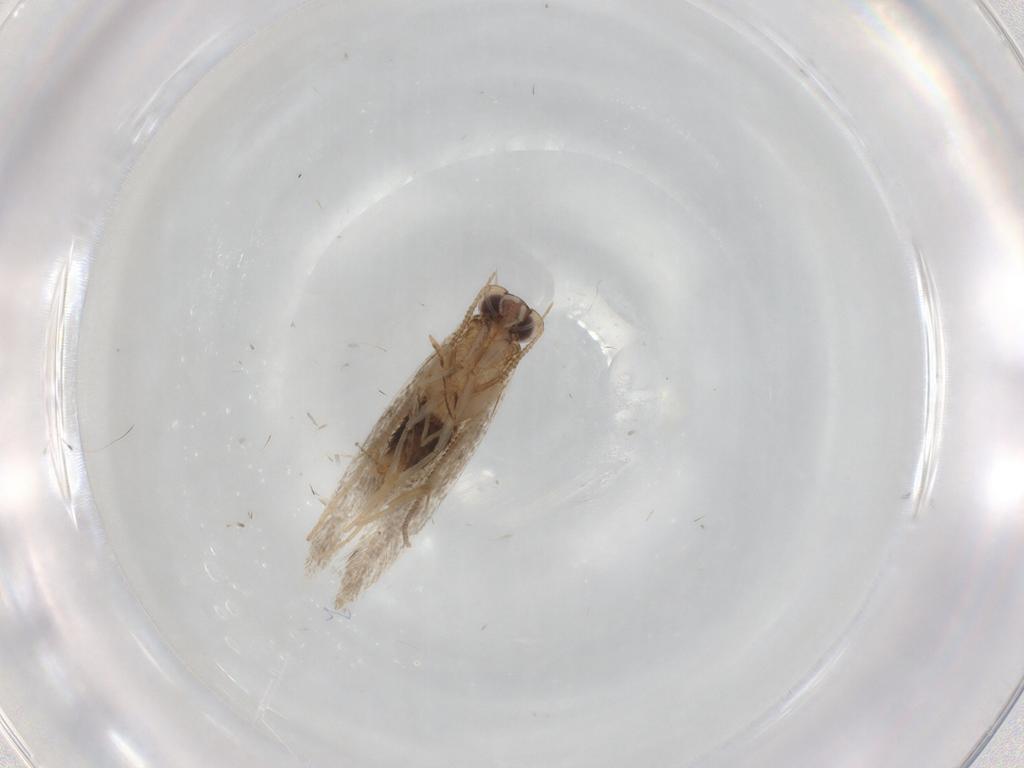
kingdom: Animalia
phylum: Arthropoda
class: Insecta
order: Lepidoptera
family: Tineidae
